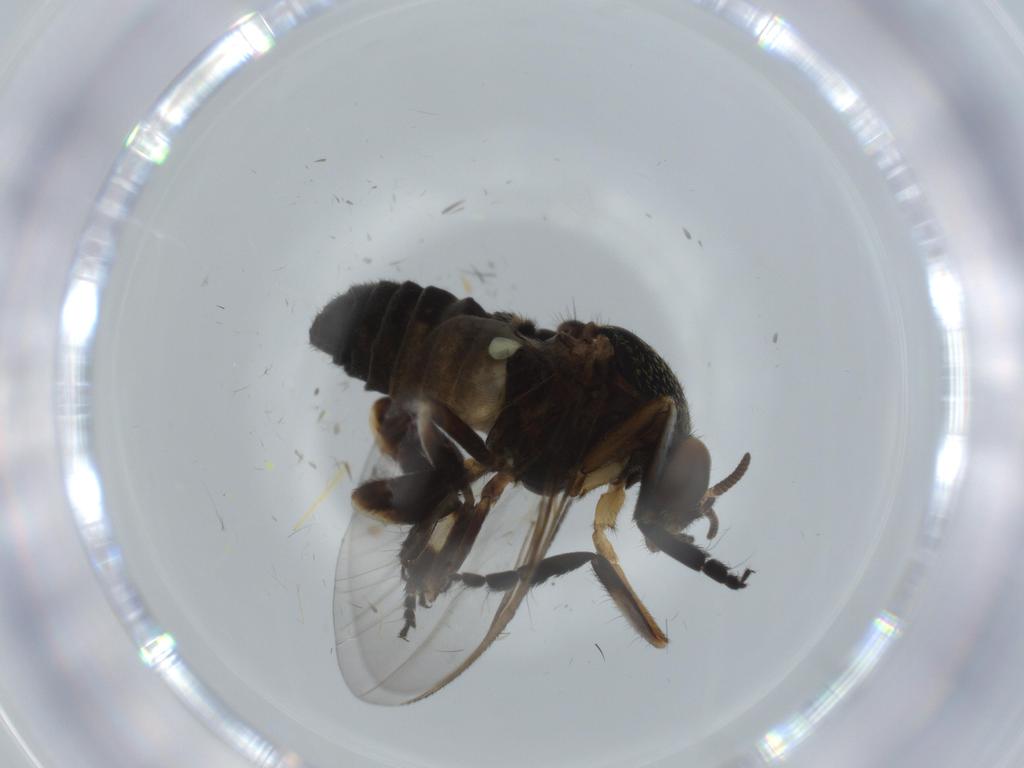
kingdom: Animalia
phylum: Arthropoda
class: Insecta
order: Diptera
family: Milichiidae
